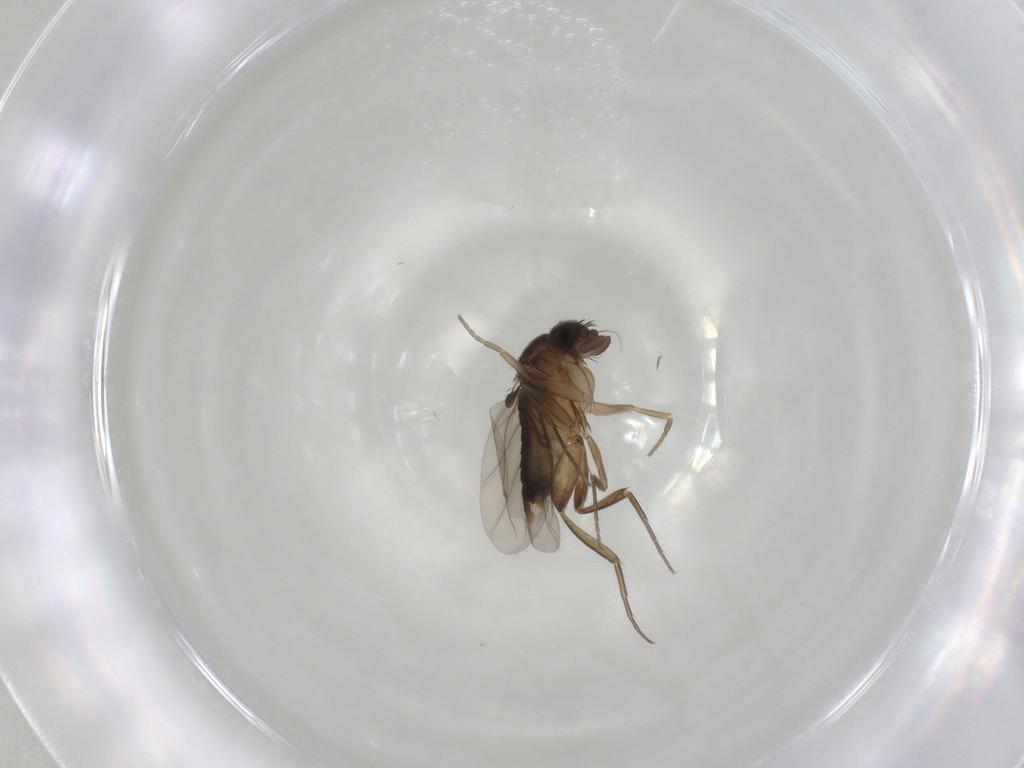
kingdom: Animalia
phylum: Arthropoda
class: Insecta
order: Diptera
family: Phoridae
